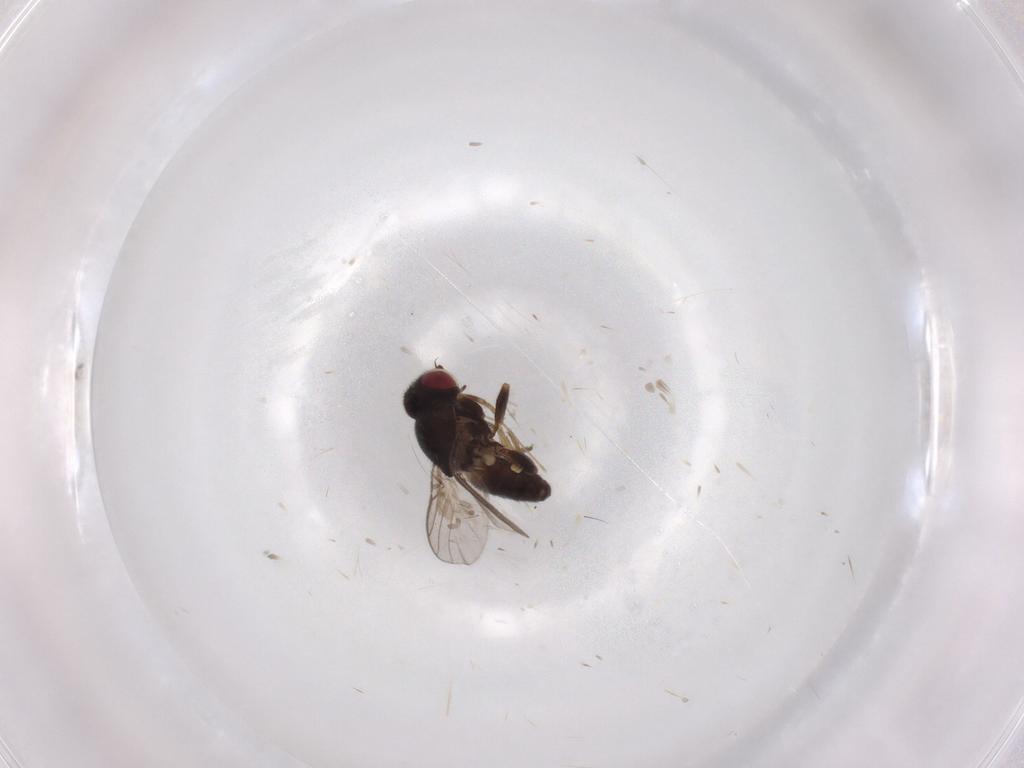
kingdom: Animalia
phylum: Arthropoda
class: Insecta
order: Diptera
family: Chloropidae
